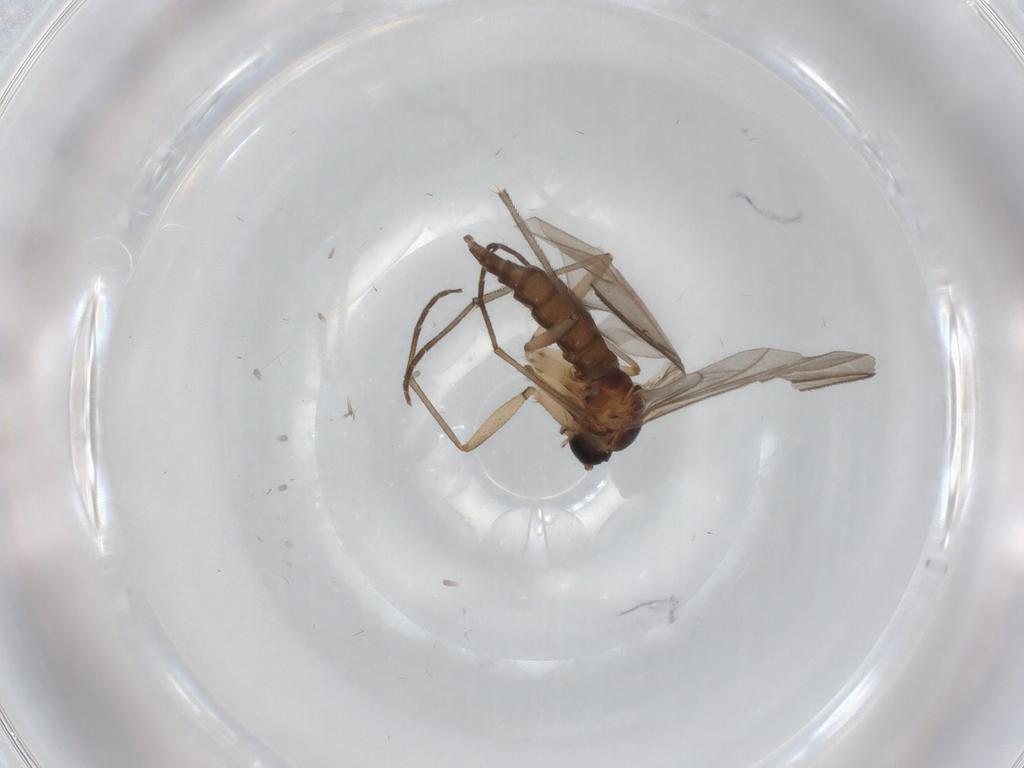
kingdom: Animalia
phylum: Arthropoda
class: Insecta
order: Diptera
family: Sciaridae
